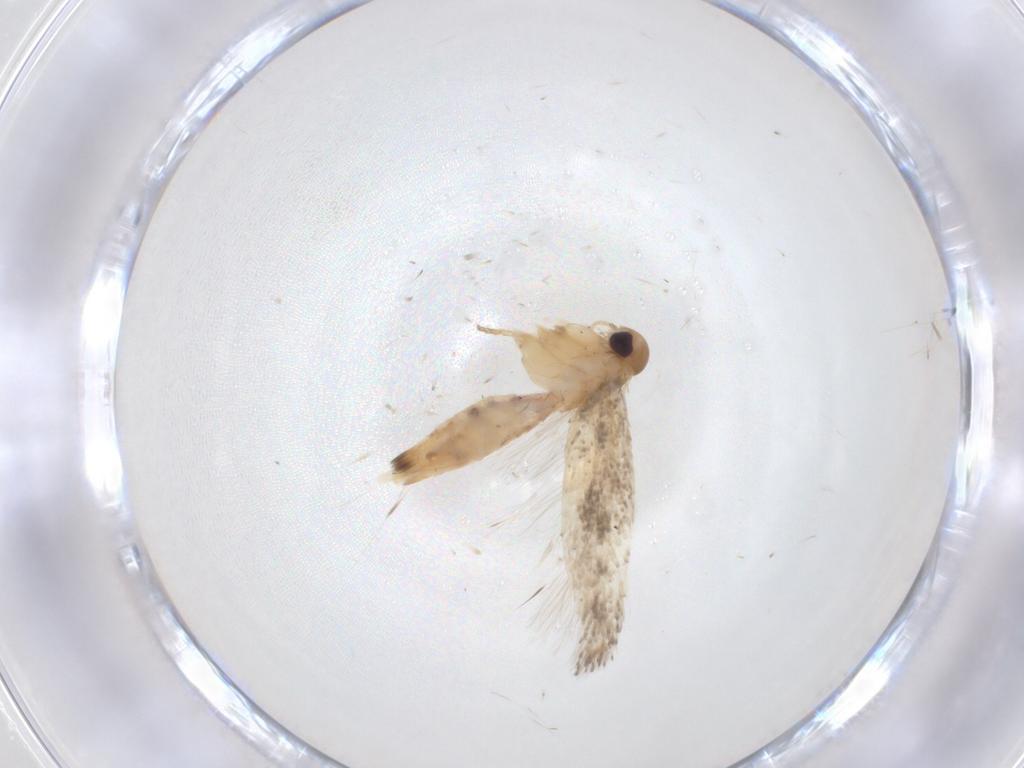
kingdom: Animalia
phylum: Arthropoda
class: Insecta
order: Lepidoptera
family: Gelechiidae
